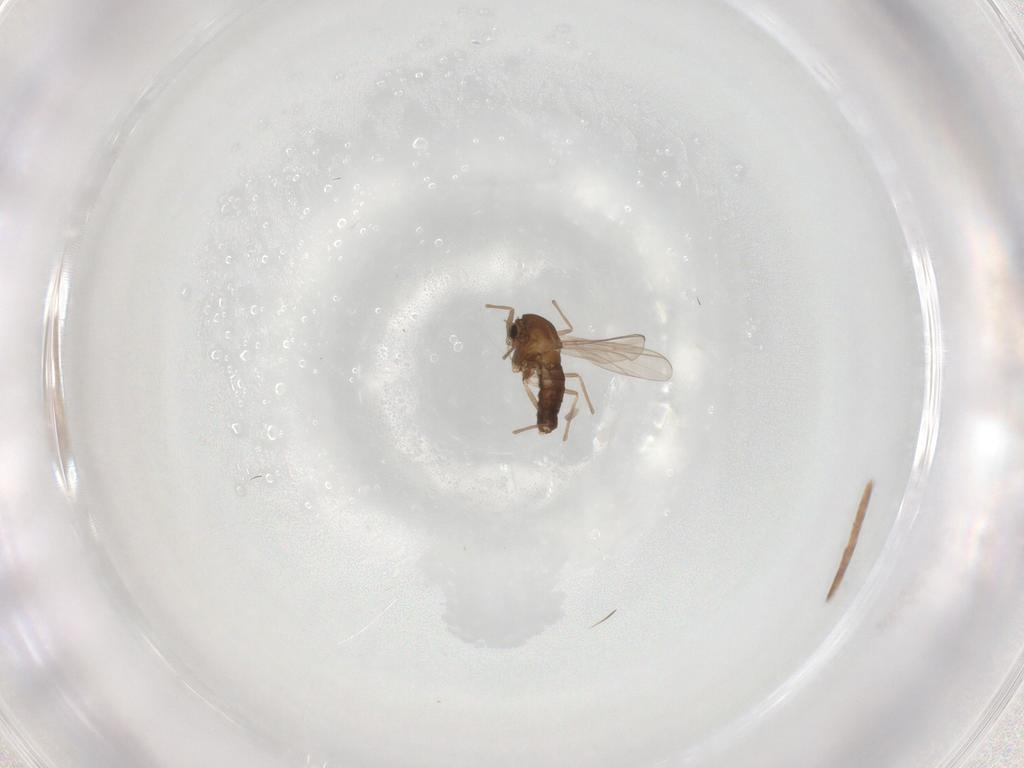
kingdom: Animalia
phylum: Arthropoda
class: Insecta
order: Diptera
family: Chironomidae
